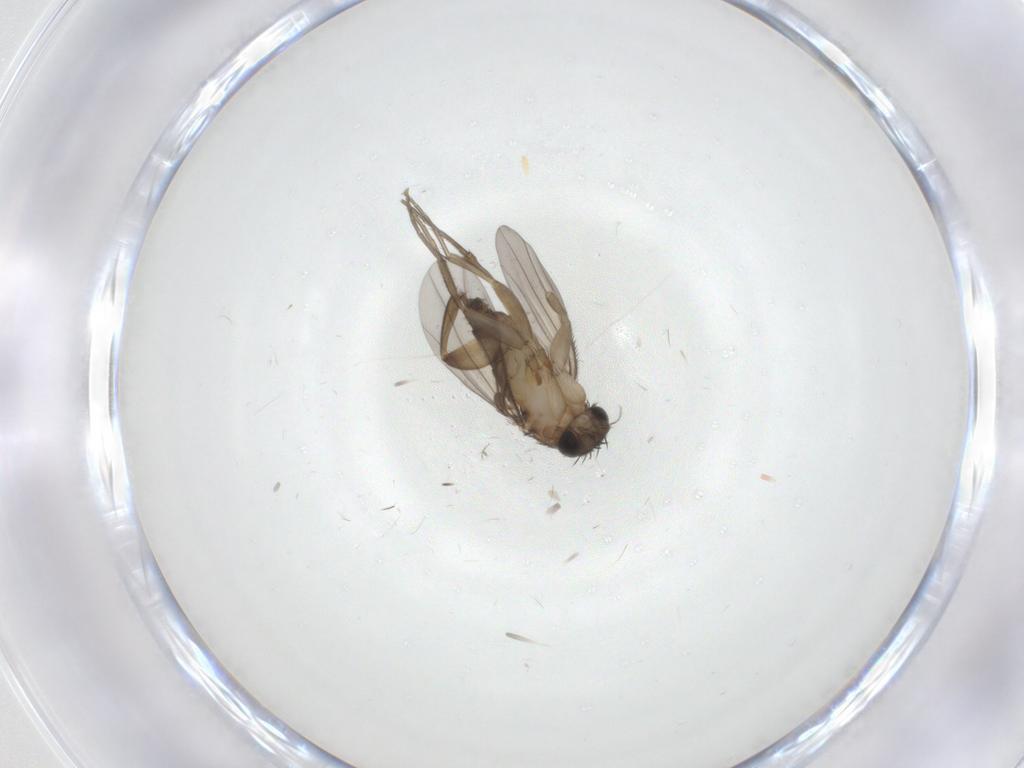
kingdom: Animalia
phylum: Arthropoda
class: Insecta
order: Diptera
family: Phoridae
